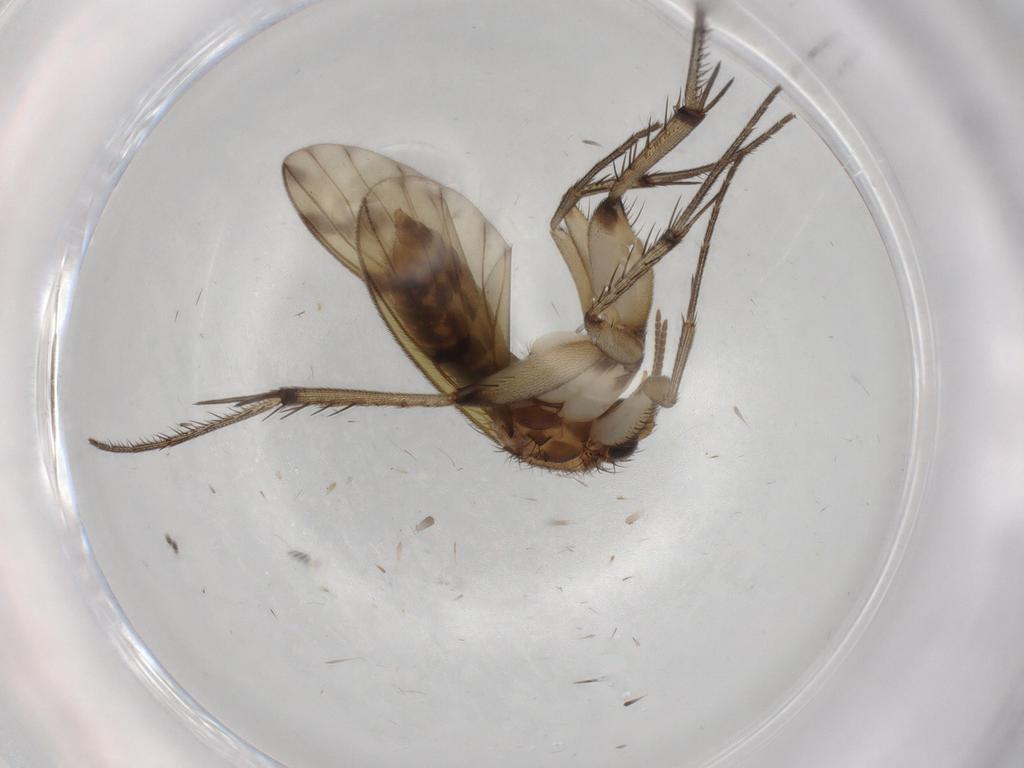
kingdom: Animalia
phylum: Arthropoda
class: Insecta
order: Diptera
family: Mycetophilidae
